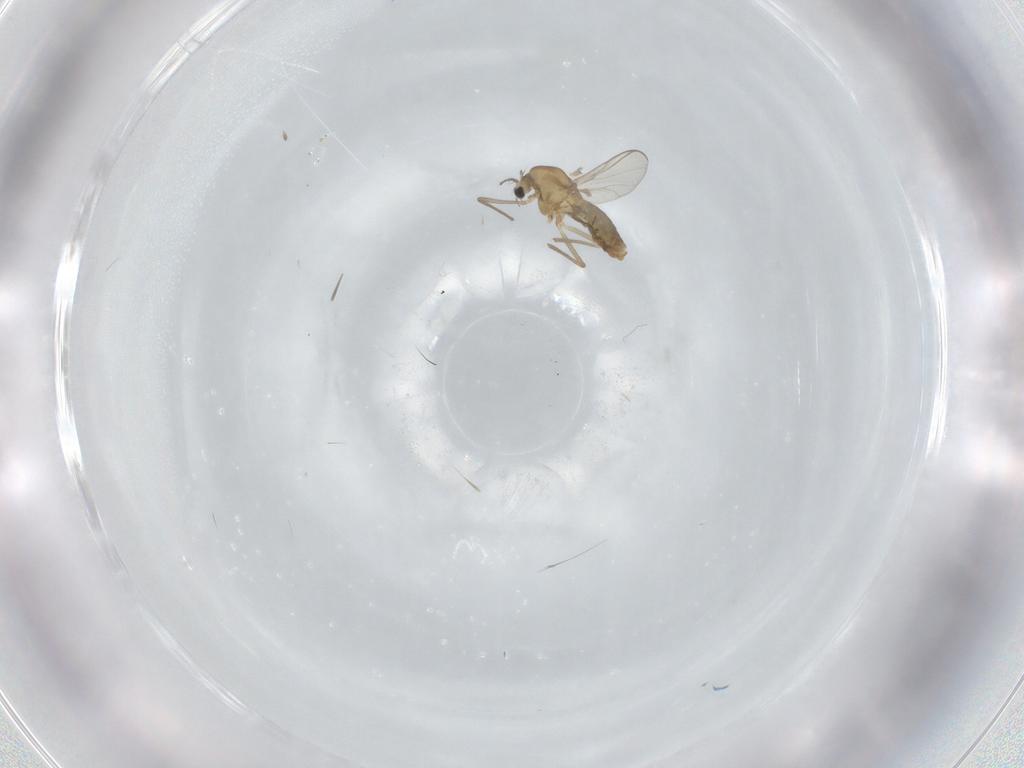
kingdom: Animalia
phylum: Arthropoda
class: Insecta
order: Diptera
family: Chironomidae
